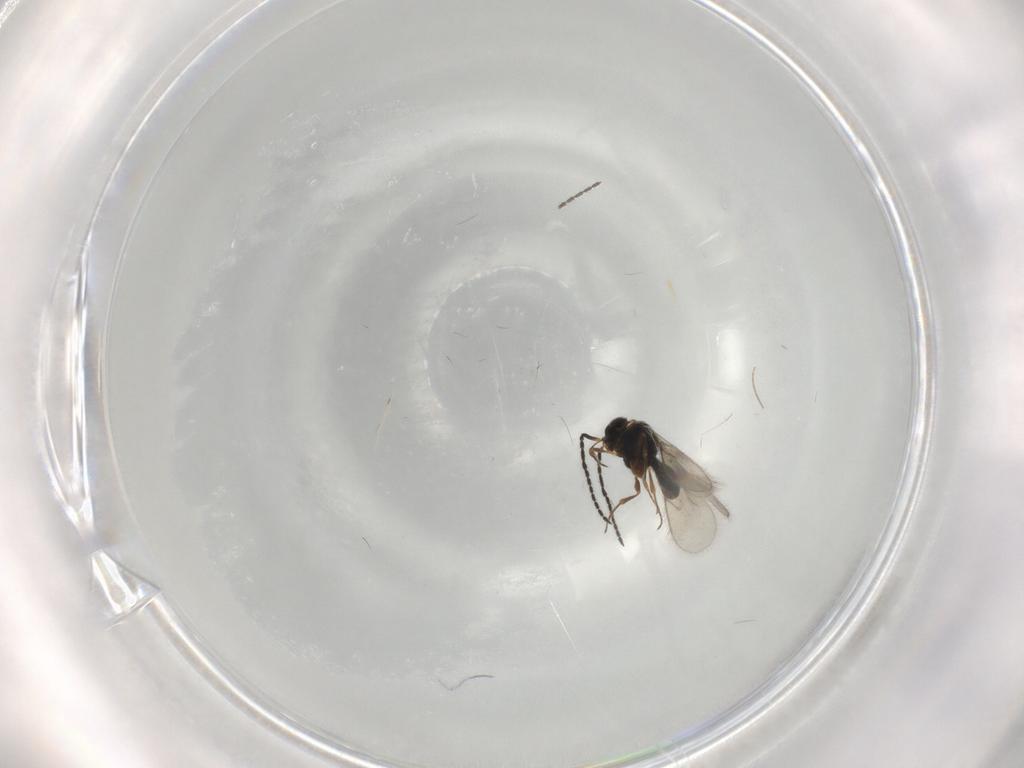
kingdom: Animalia
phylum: Arthropoda
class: Insecta
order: Hymenoptera
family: Scelionidae
